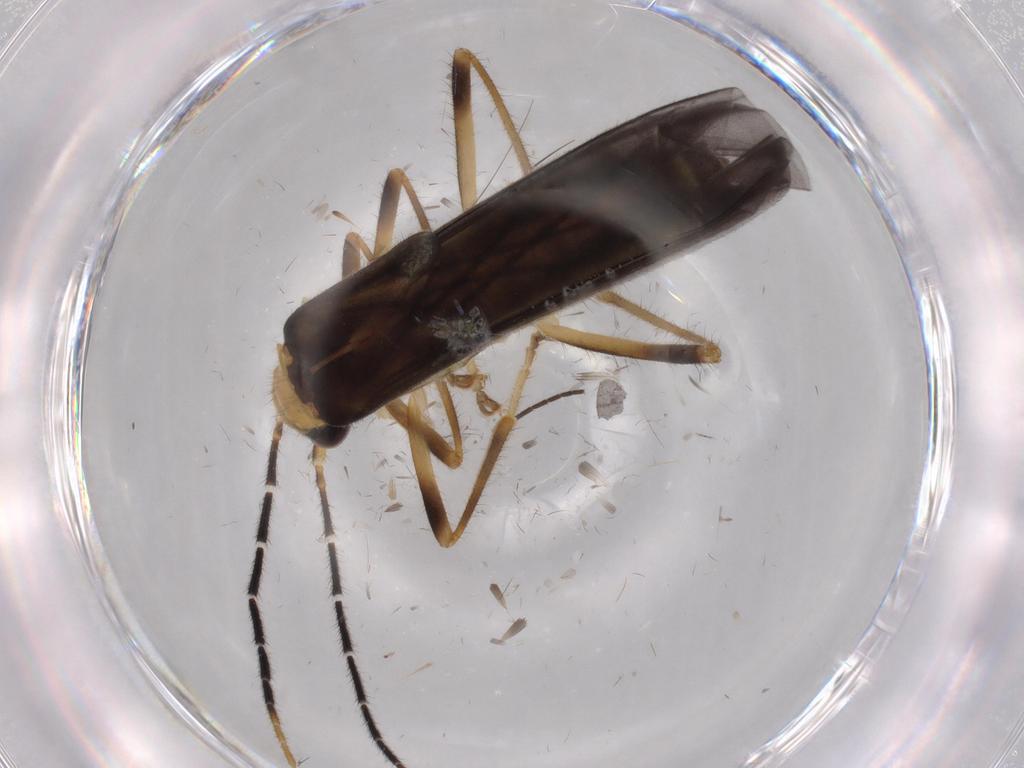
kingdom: Animalia
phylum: Arthropoda
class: Insecta
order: Coleoptera
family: Cantharidae
